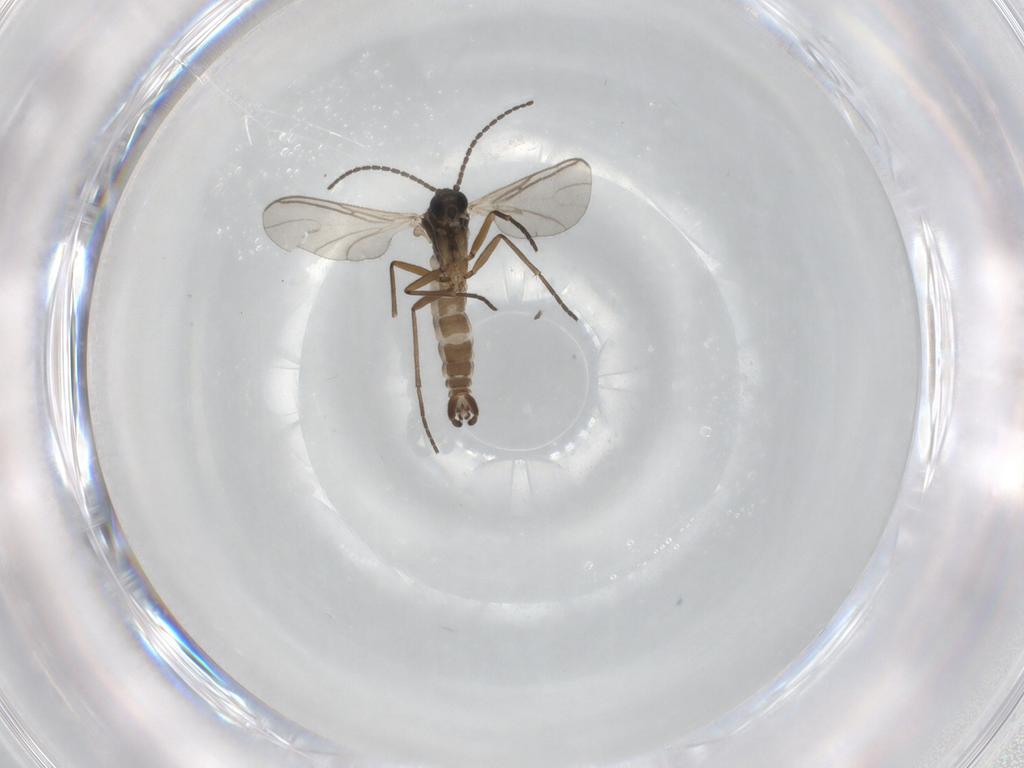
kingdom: Animalia
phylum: Arthropoda
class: Insecta
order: Diptera
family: Sciaridae
